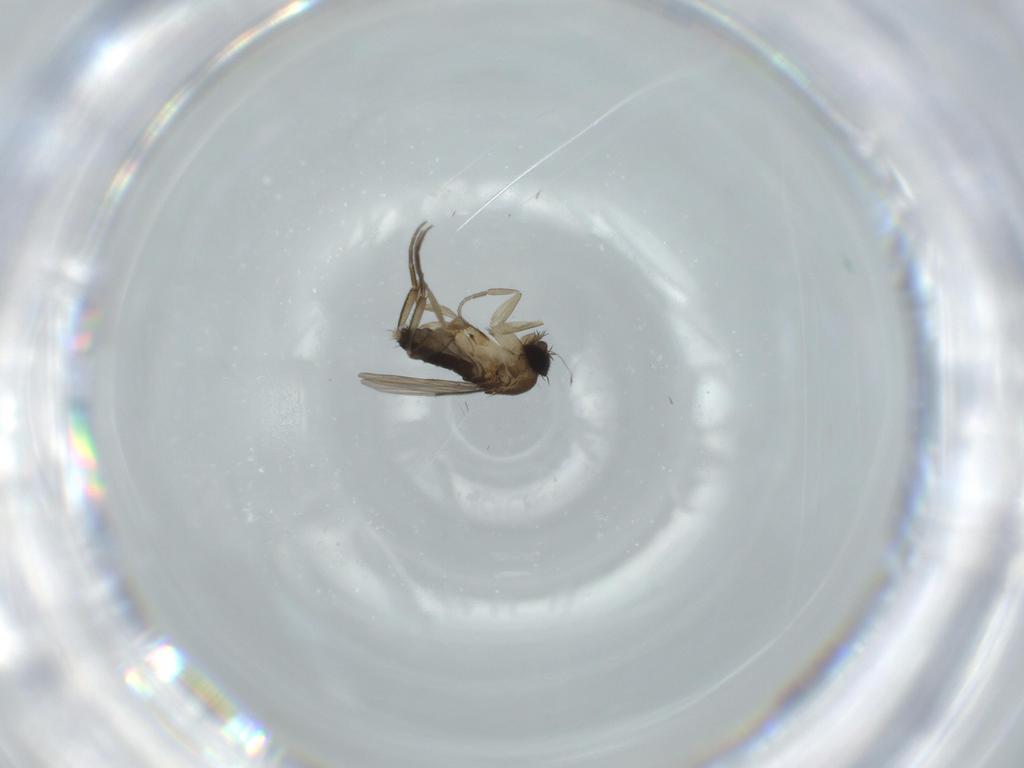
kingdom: Animalia
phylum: Arthropoda
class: Insecta
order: Diptera
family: Phoridae
